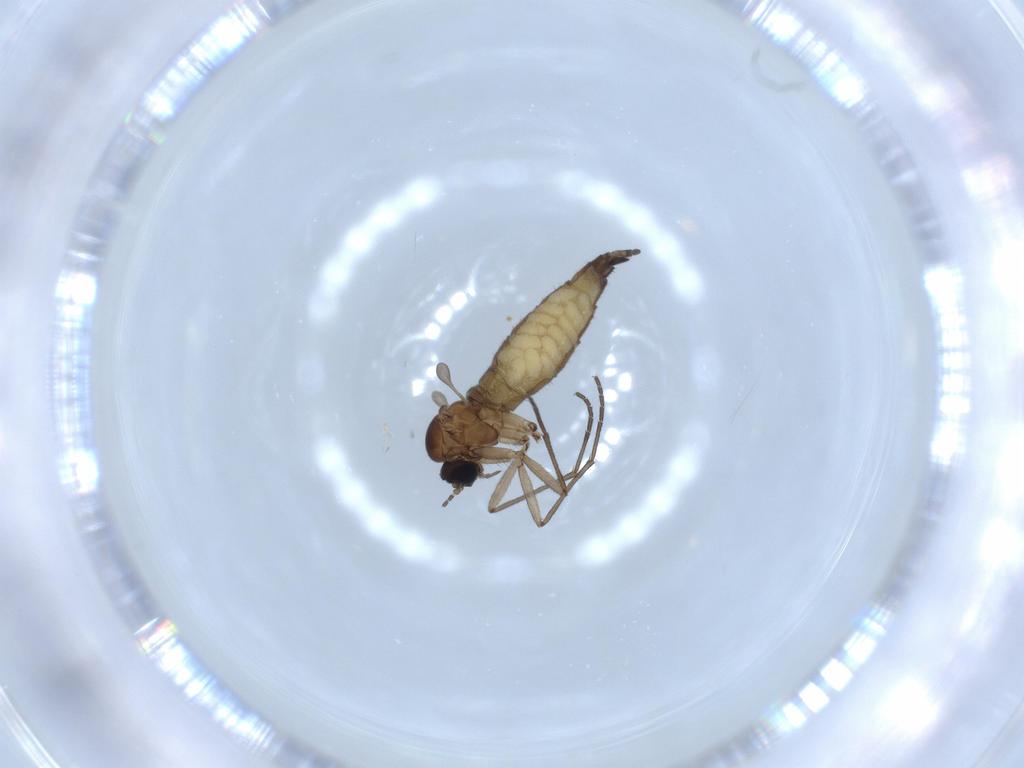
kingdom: Animalia
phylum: Arthropoda
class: Insecta
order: Diptera
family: Sciaridae
